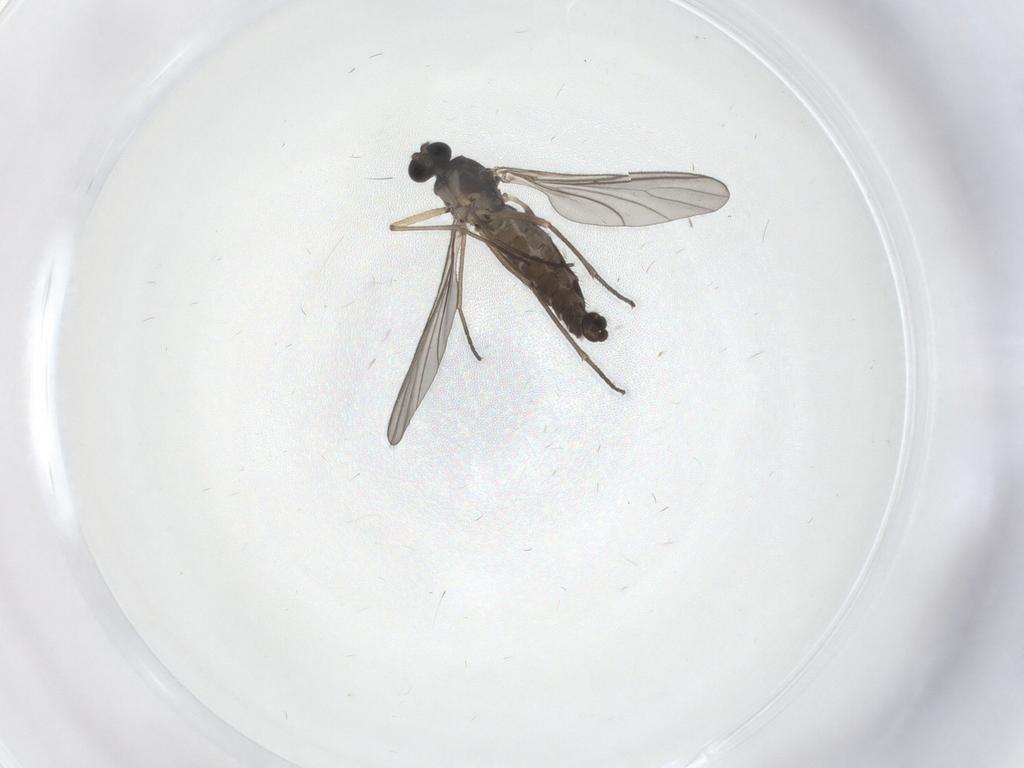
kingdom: Animalia
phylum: Arthropoda
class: Insecta
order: Diptera
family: Sciaridae
